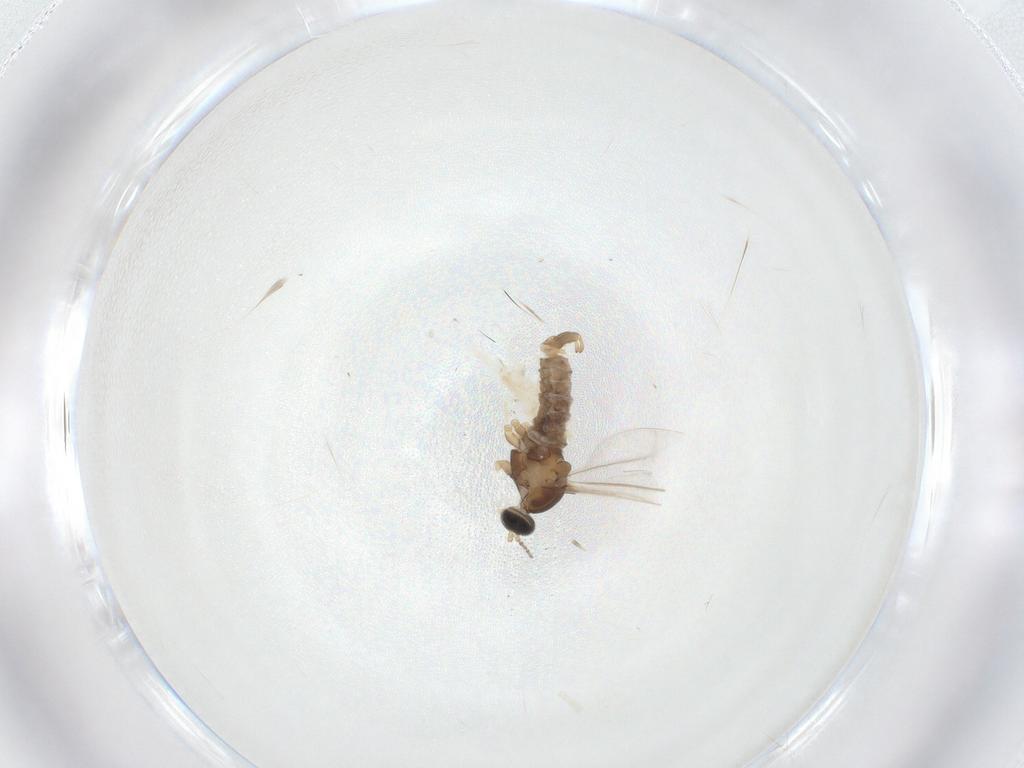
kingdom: Animalia
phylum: Arthropoda
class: Insecta
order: Diptera
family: Cecidomyiidae
